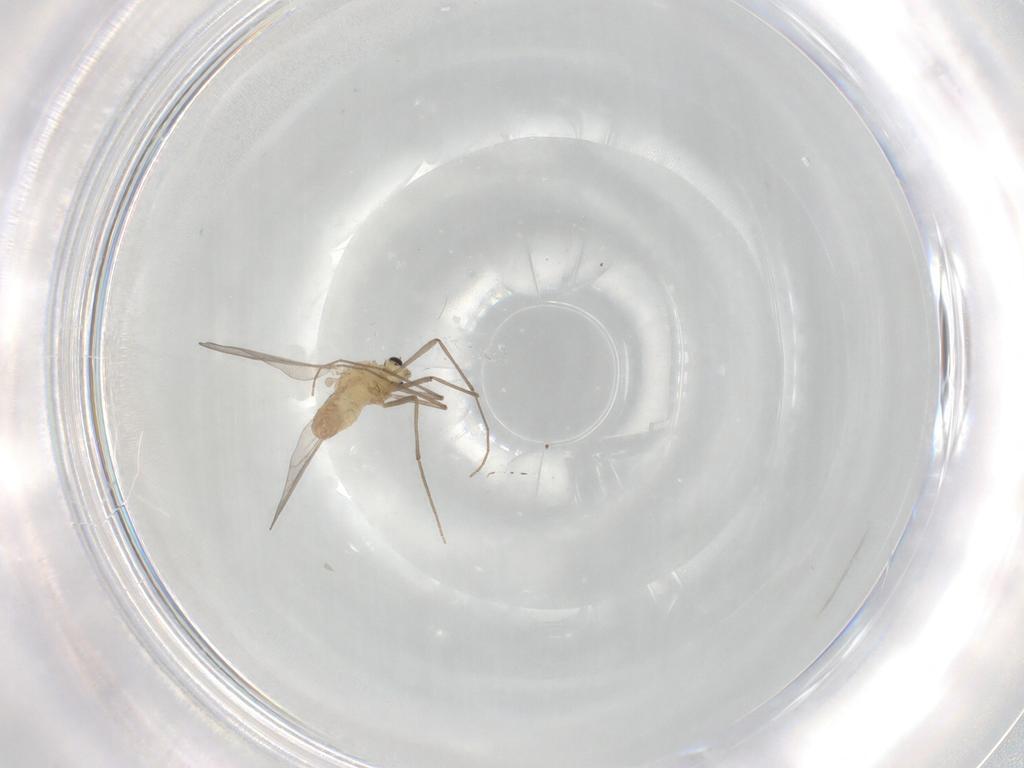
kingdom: Animalia
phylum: Arthropoda
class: Insecta
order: Diptera
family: Chironomidae
